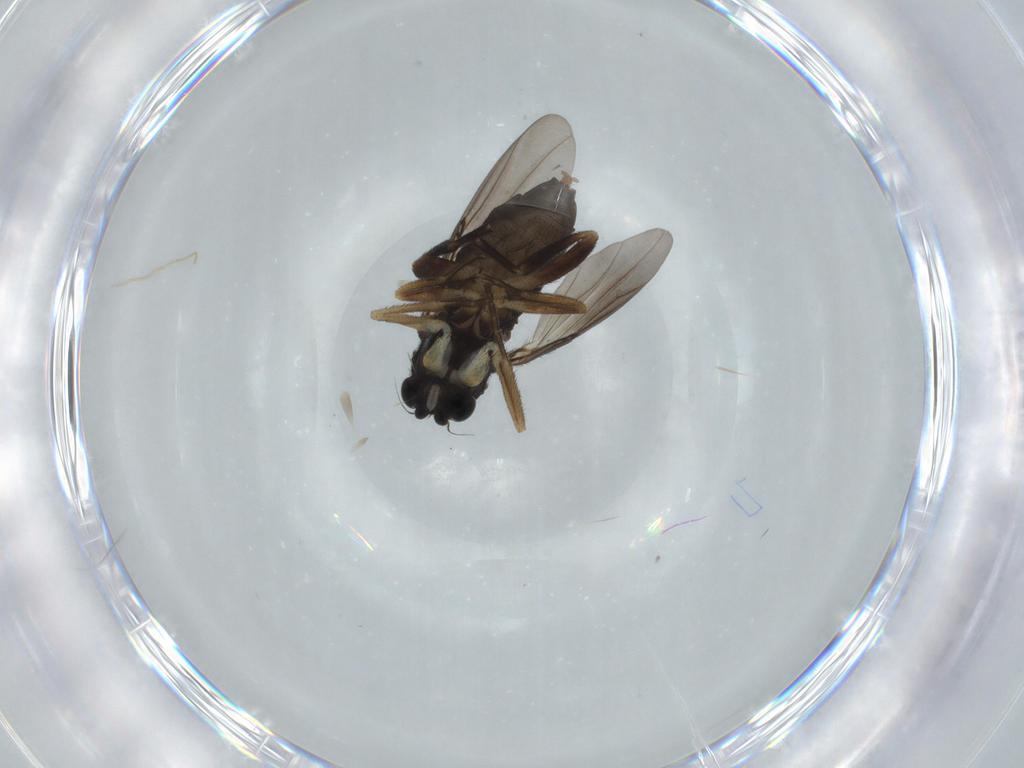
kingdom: Animalia
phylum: Arthropoda
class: Insecta
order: Diptera
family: Phoridae
